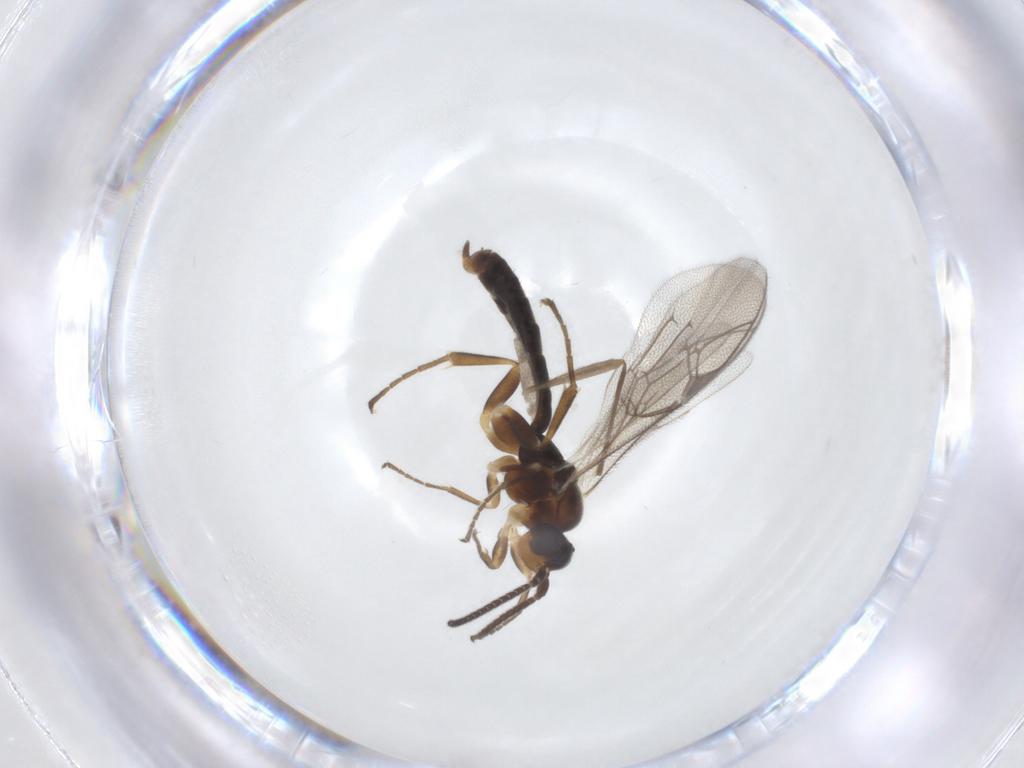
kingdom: Animalia
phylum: Arthropoda
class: Insecta
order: Hymenoptera
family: Ichneumonidae
